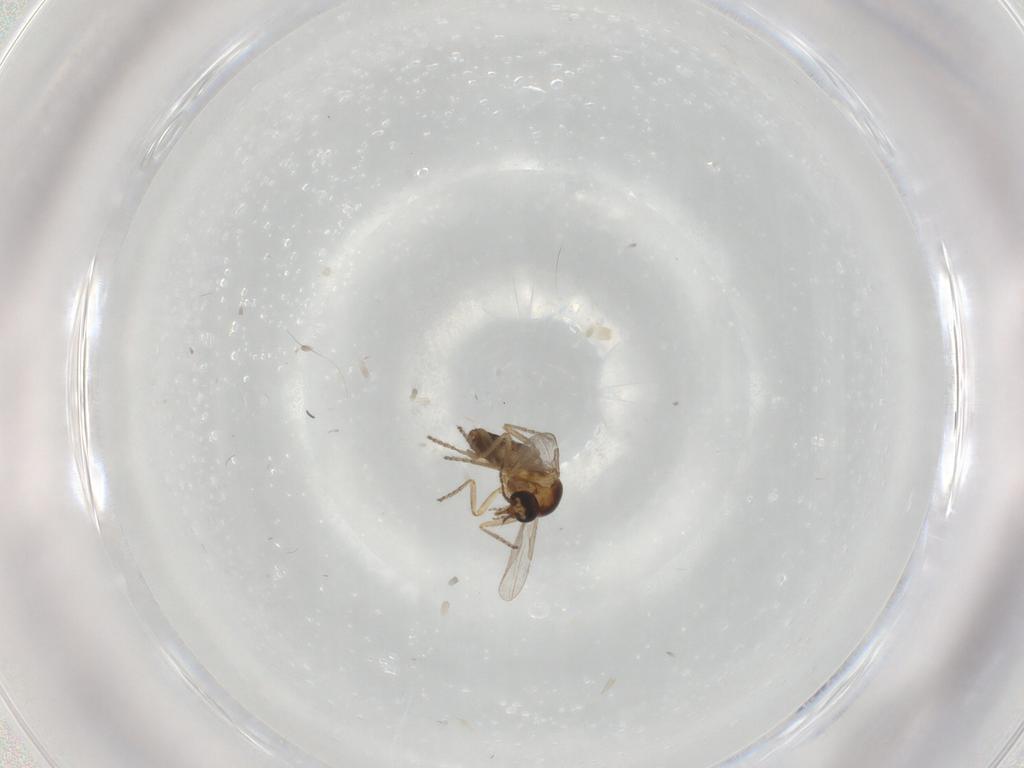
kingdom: Animalia
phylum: Arthropoda
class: Insecta
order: Diptera
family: Ceratopogonidae
